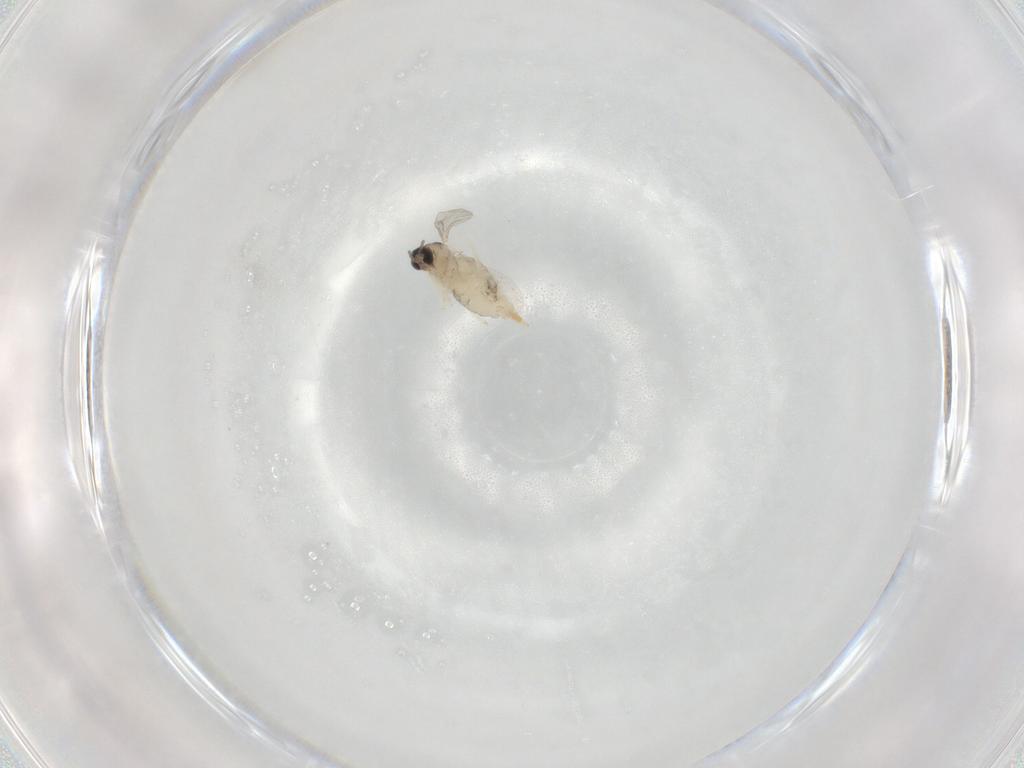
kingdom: Animalia
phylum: Arthropoda
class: Insecta
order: Diptera
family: Cecidomyiidae
